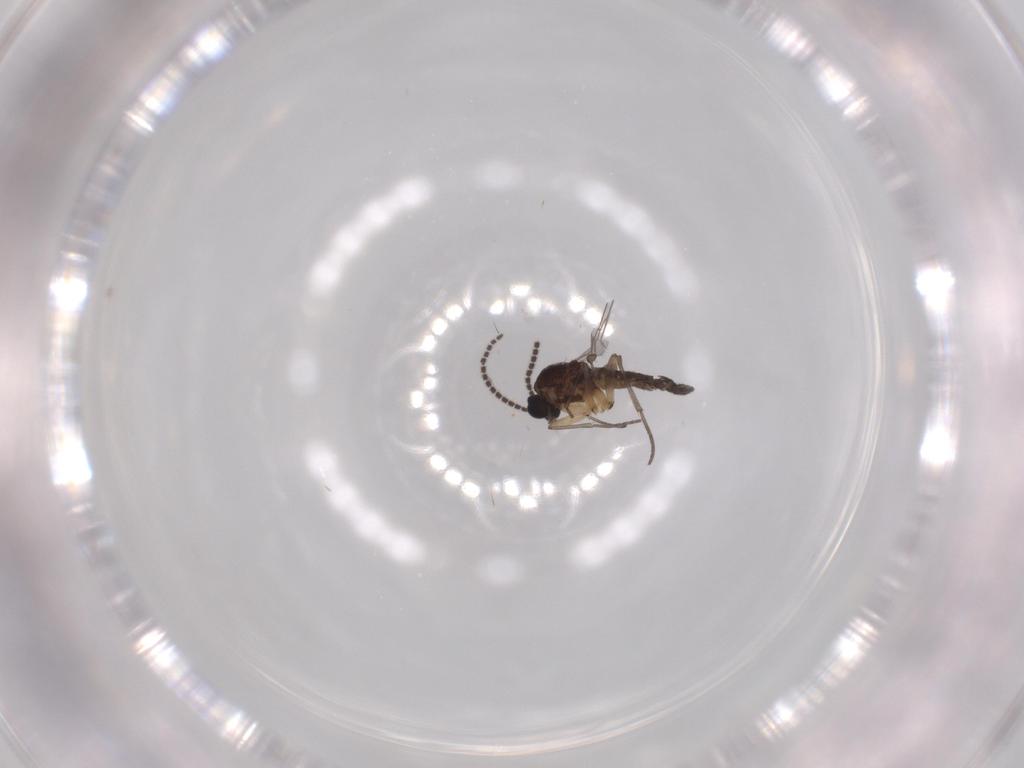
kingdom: Animalia
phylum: Arthropoda
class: Insecta
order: Diptera
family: Sciaridae
